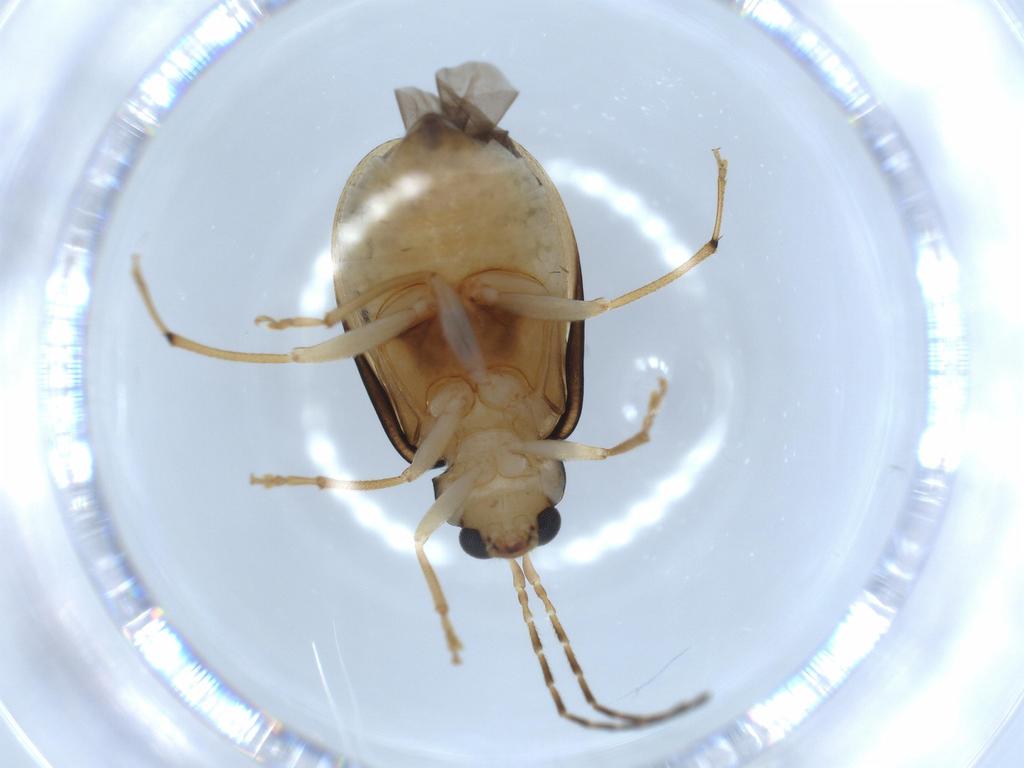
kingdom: Animalia
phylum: Arthropoda
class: Insecta
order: Coleoptera
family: Chrysomelidae
